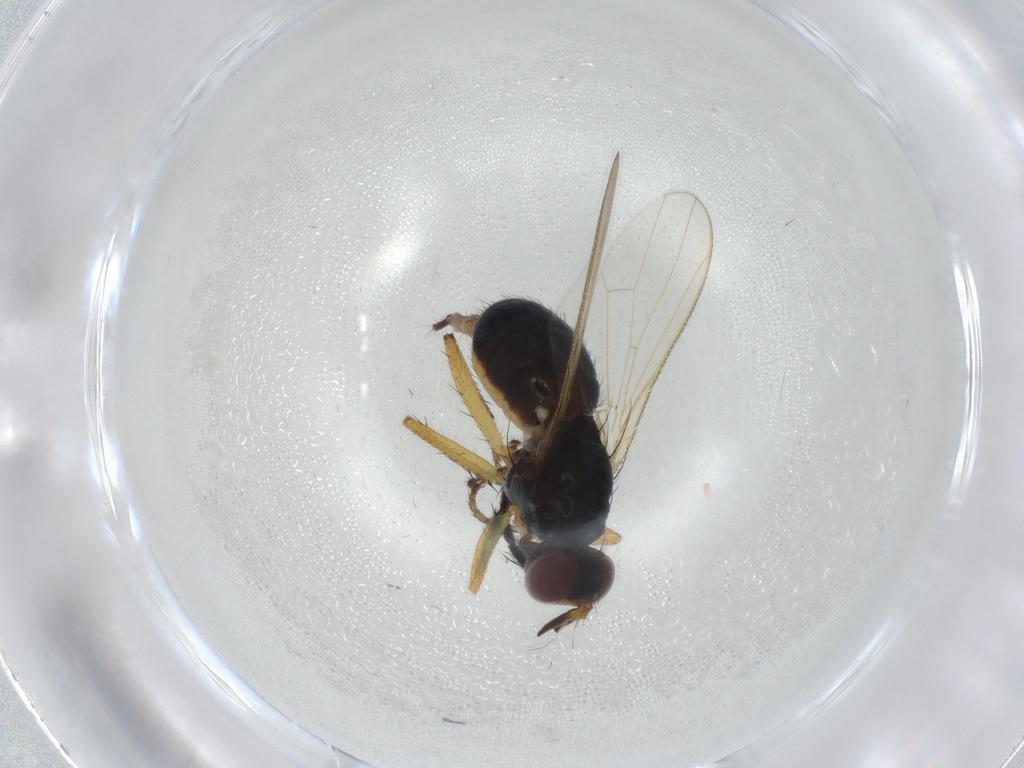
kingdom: Animalia
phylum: Arthropoda
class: Insecta
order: Diptera
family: Muscidae
